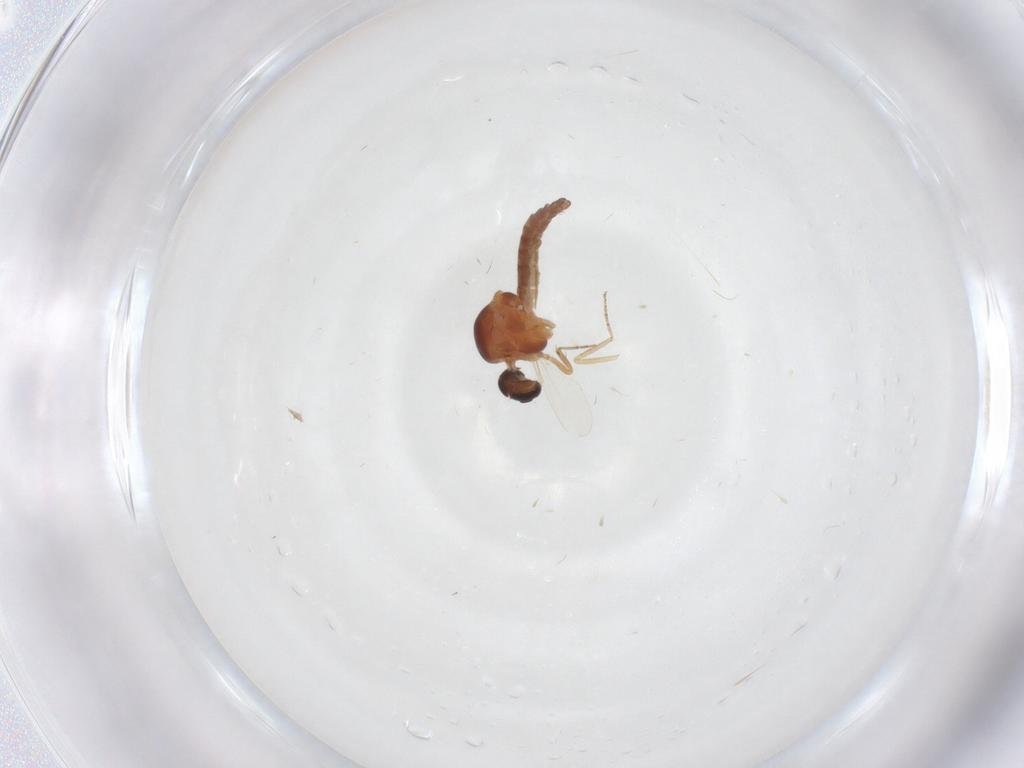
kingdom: Animalia
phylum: Arthropoda
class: Insecta
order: Diptera
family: Ceratopogonidae
